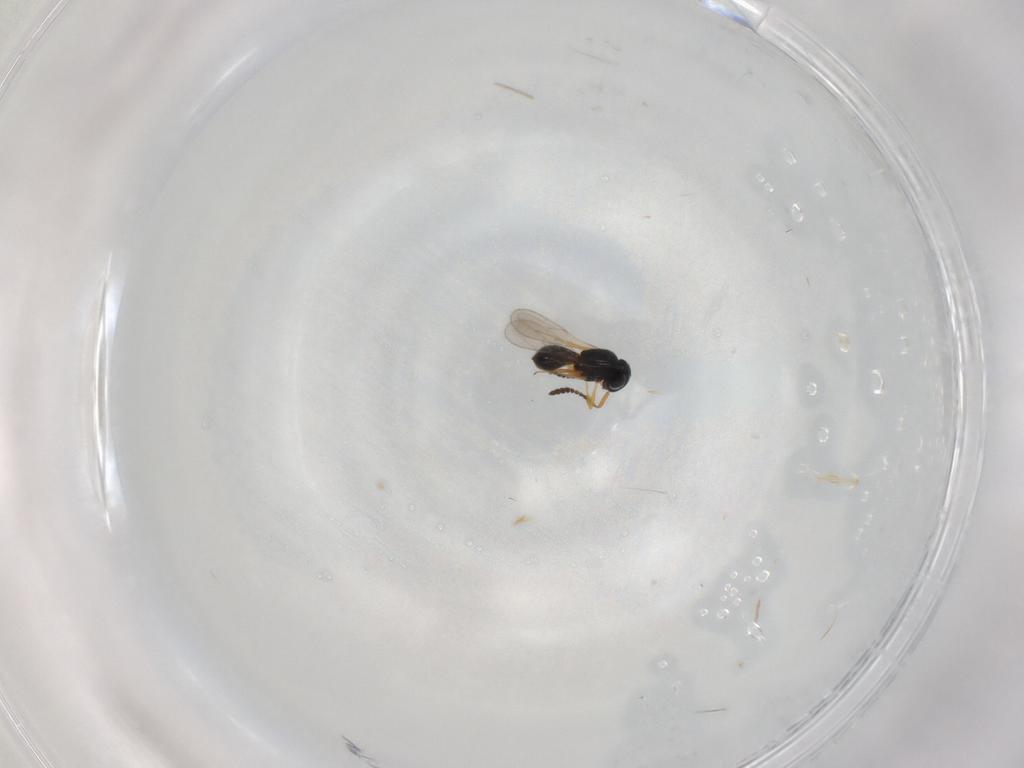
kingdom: Animalia
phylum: Arthropoda
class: Insecta
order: Hymenoptera
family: Scelionidae
